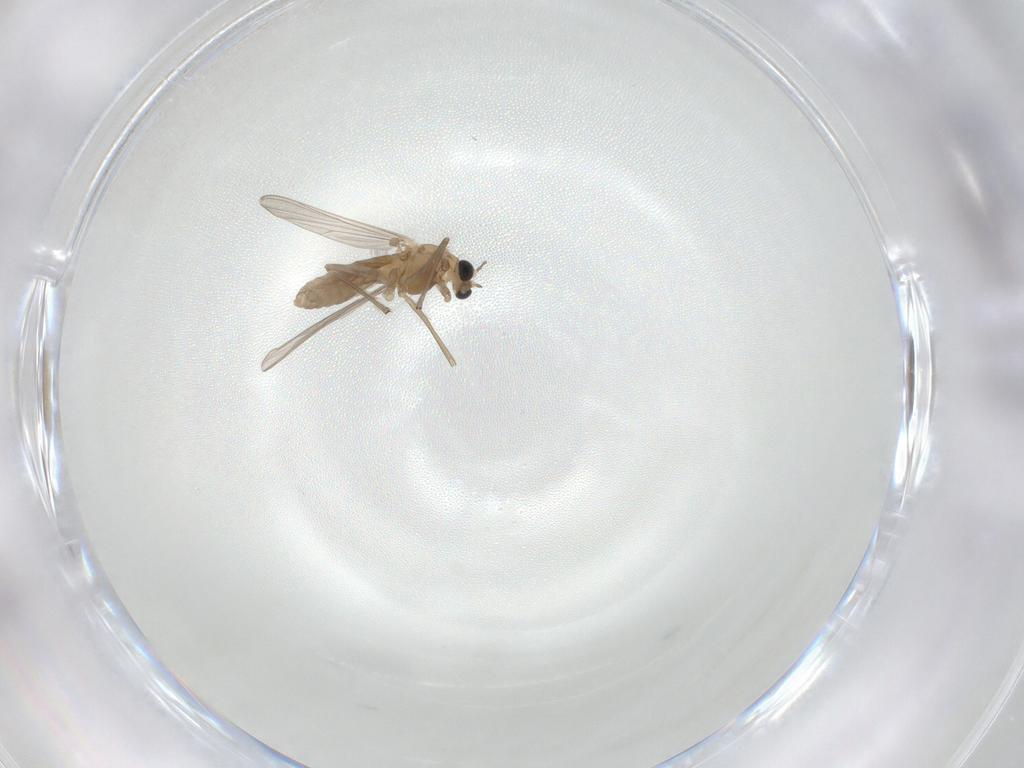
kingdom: Animalia
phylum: Arthropoda
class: Insecta
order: Diptera
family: Chironomidae
